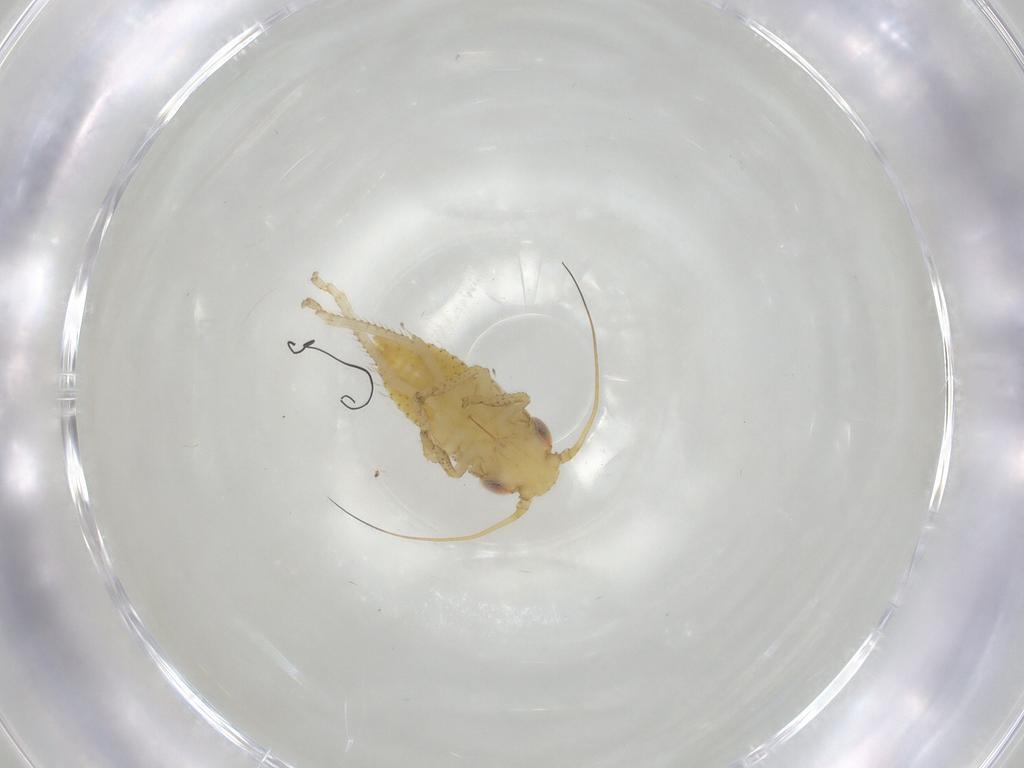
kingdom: Animalia
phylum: Arthropoda
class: Insecta
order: Hemiptera
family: Cicadellidae
